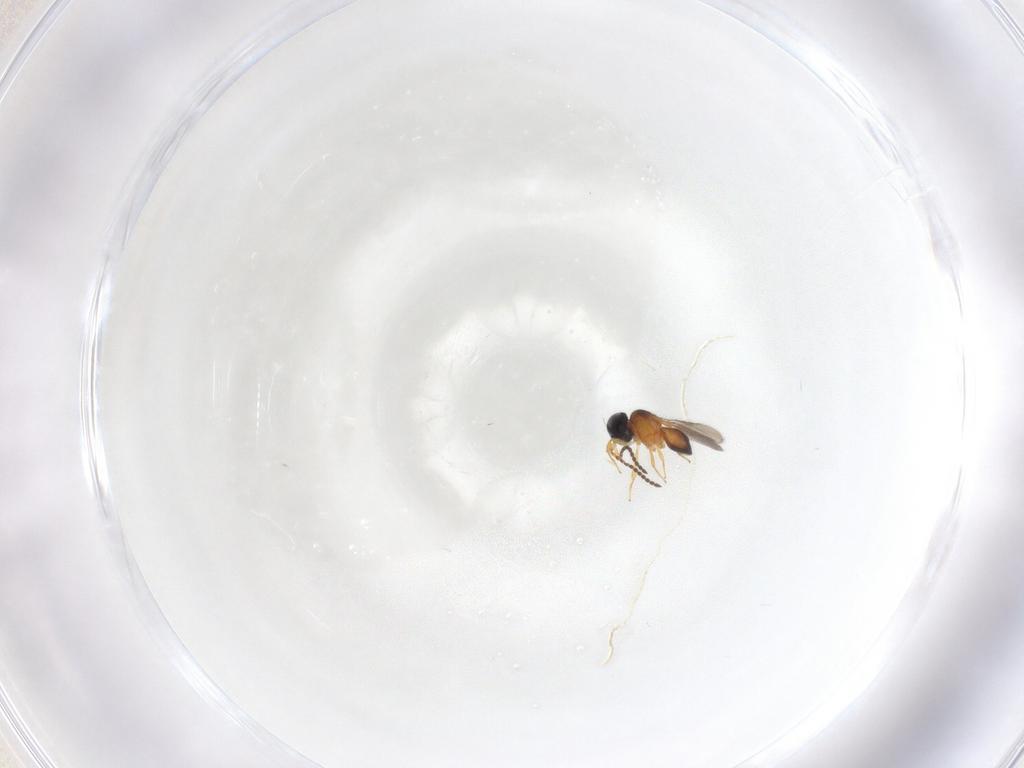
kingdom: Animalia
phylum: Arthropoda
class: Insecta
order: Hymenoptera
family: Scelionidae
